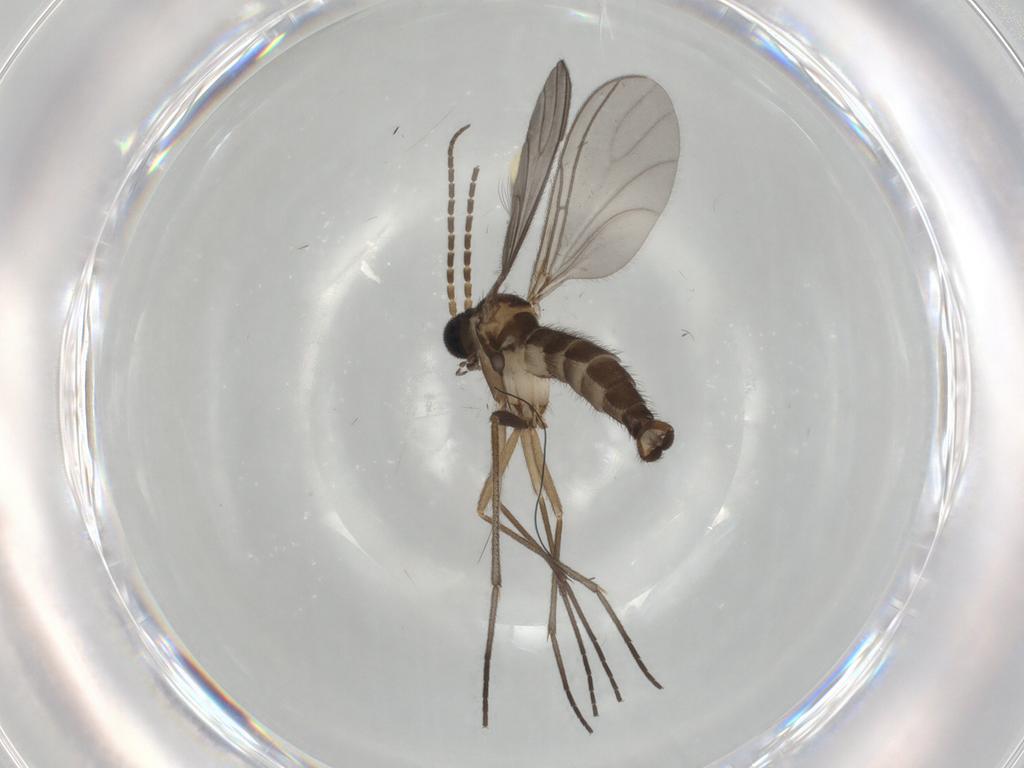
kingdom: Animalia
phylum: Arthropoda
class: Insecta
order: Diptera
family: Sciaridae
